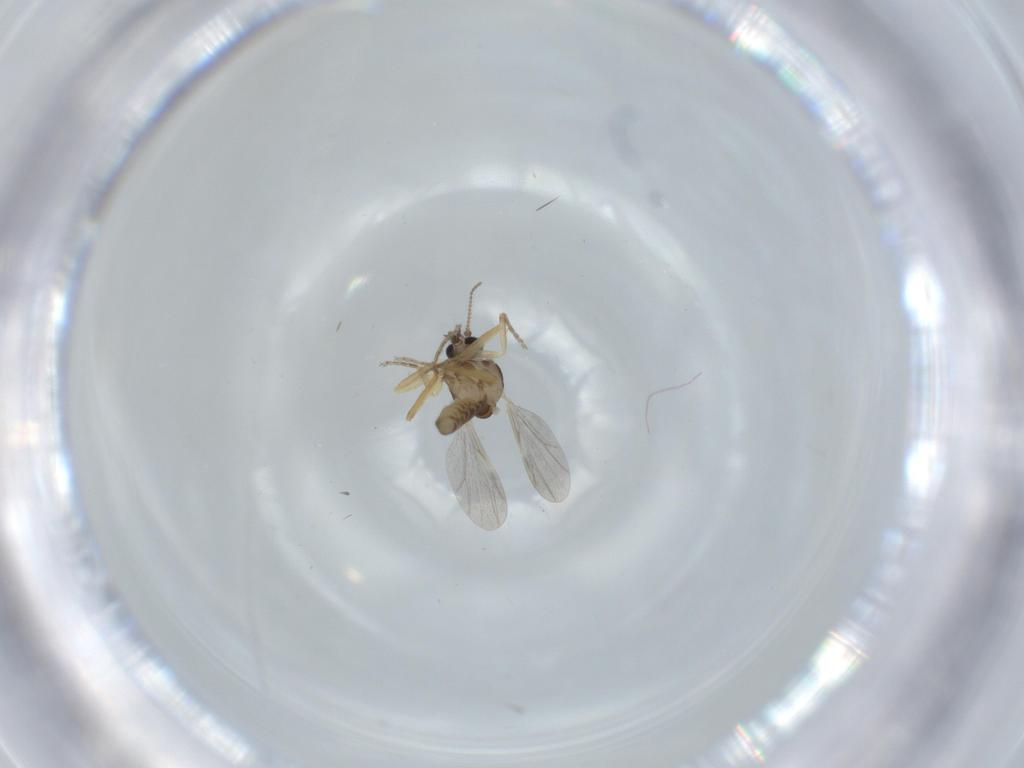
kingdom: Animalia
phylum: Arthropoda
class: Insecta
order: Diptera
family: Ceratopogonidae
